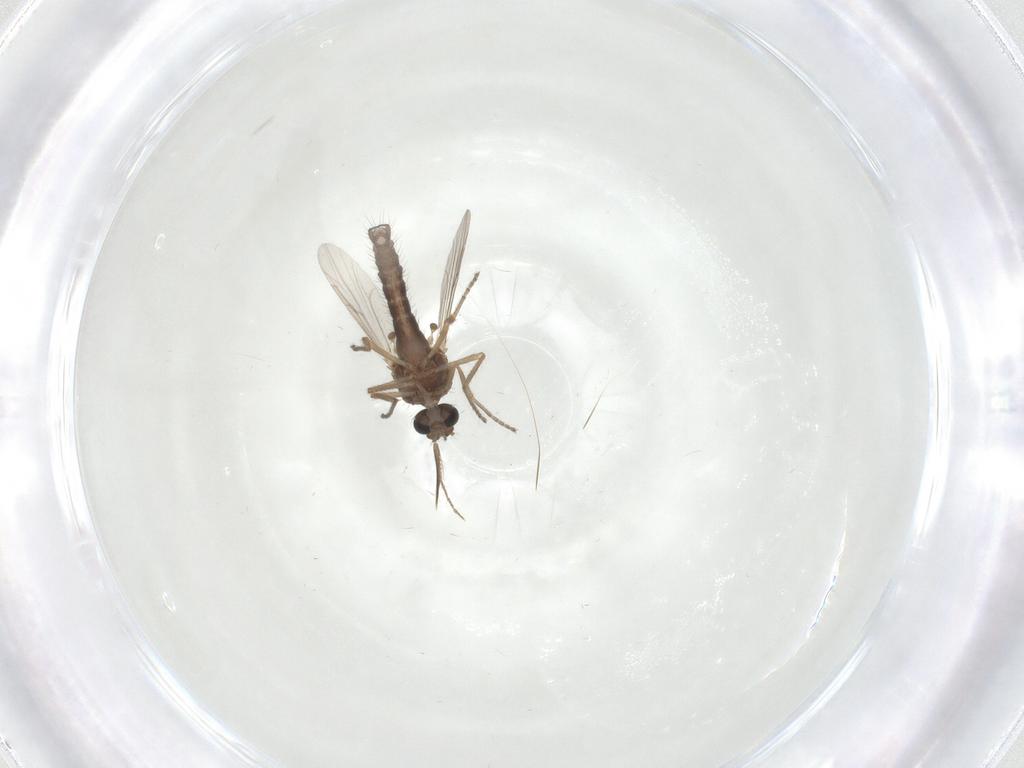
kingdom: Animalia
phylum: Arthropoda
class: Insecta
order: Diptera
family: Ceratopogonidae
